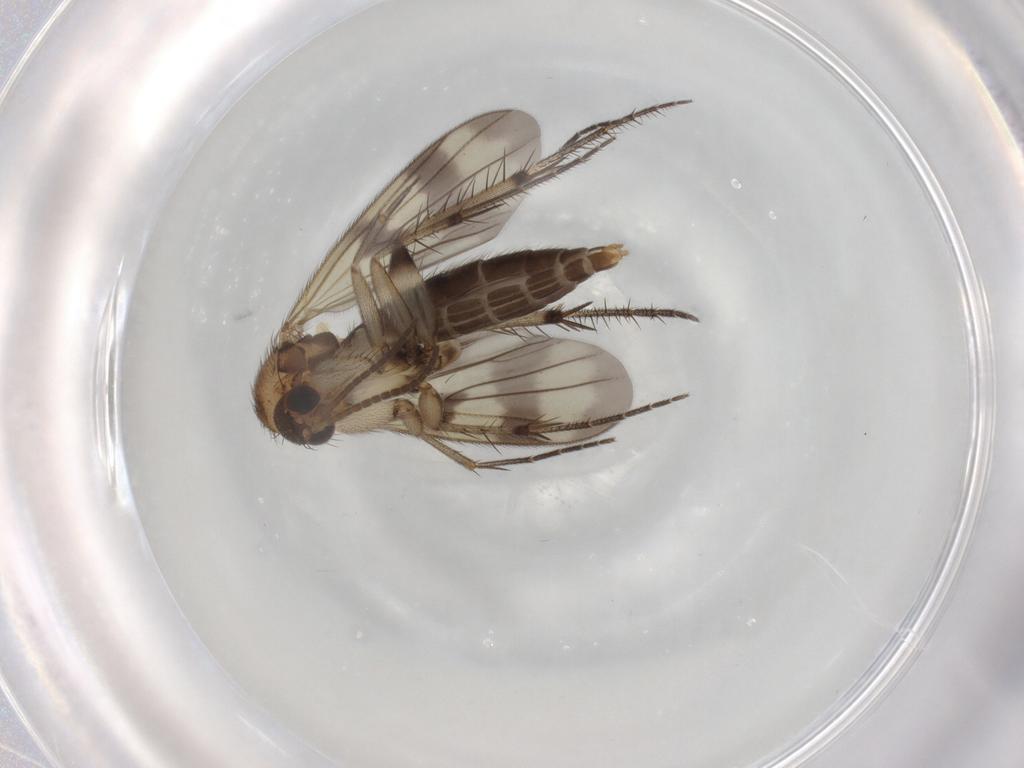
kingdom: Animalia
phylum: Arthropoda
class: Insecta
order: Diptera
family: Mycetophilidae
